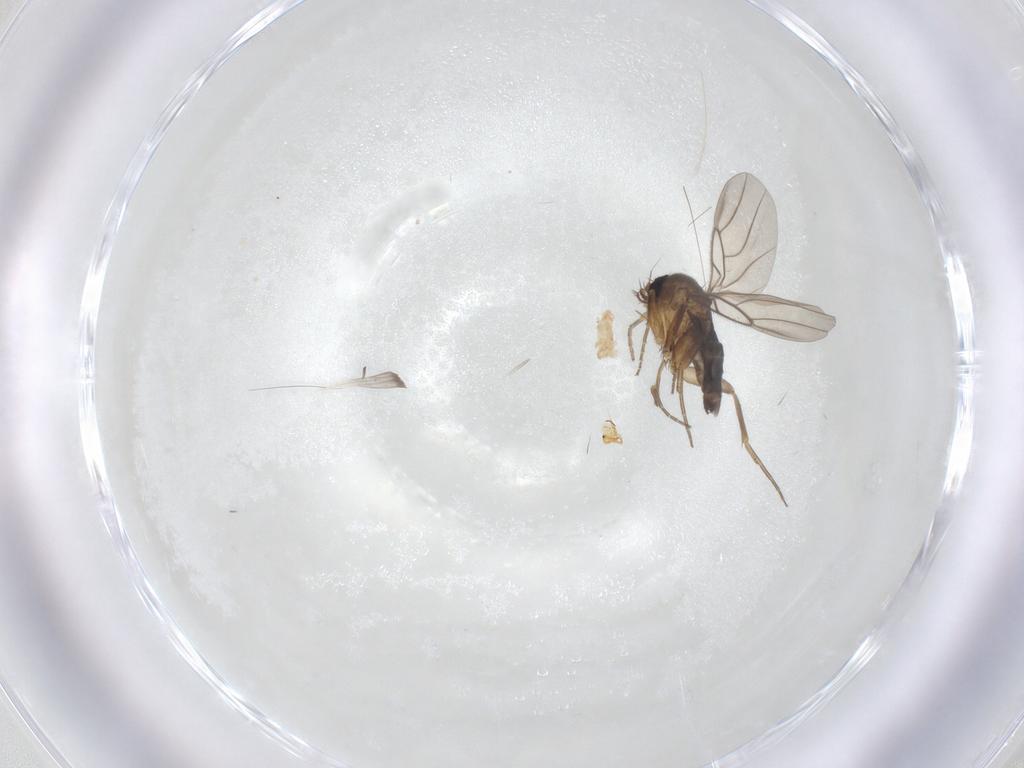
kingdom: Animalia
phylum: Arthropoda
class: Insecta
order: Diptera
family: Phoridae
